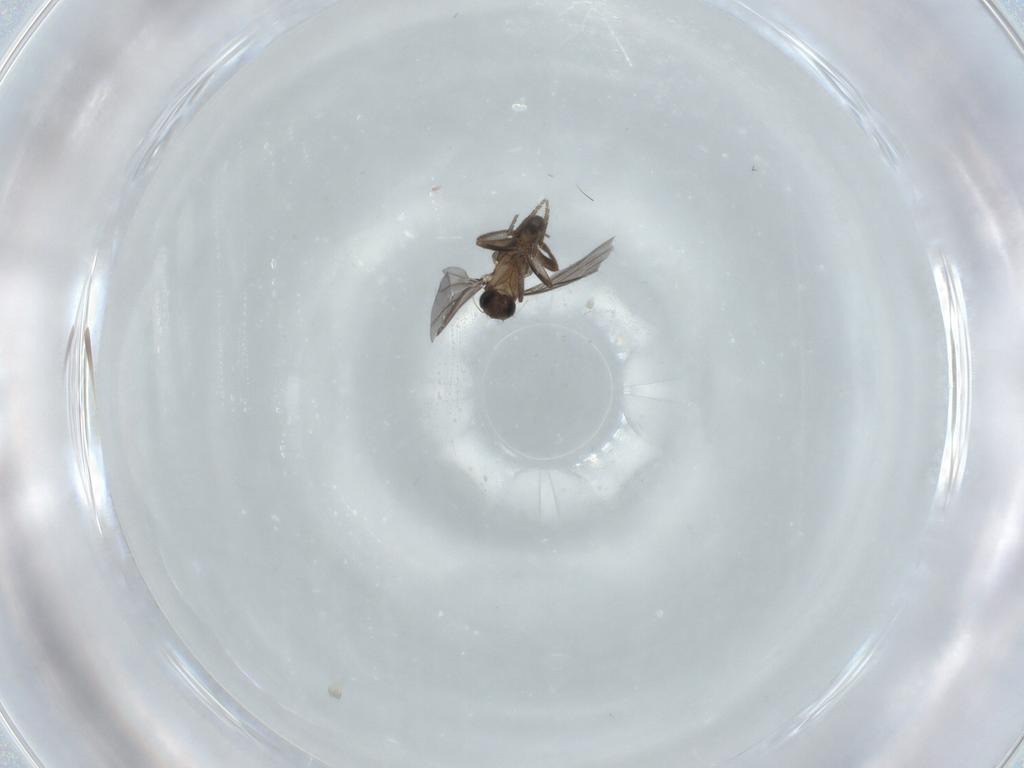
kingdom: Animalia
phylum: Arthropoda
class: Insecta
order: Diptera
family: Phoridae
